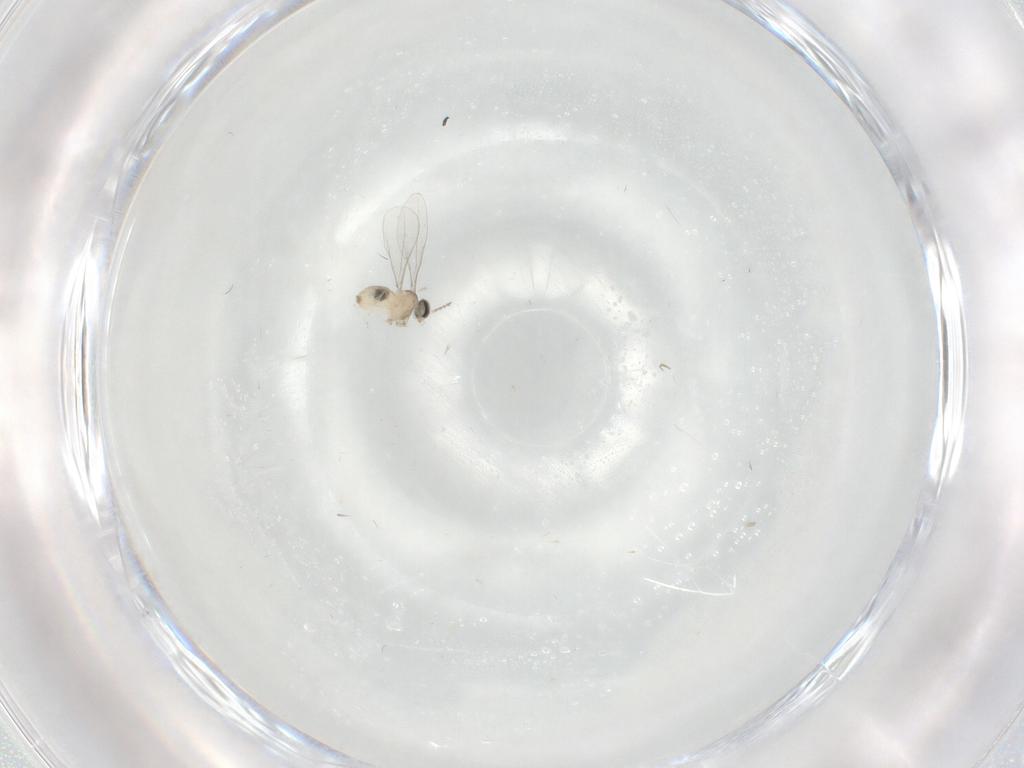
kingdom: Animalia
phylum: Arthropoda
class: Insecta
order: Diptera
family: Cecidomyiidae
